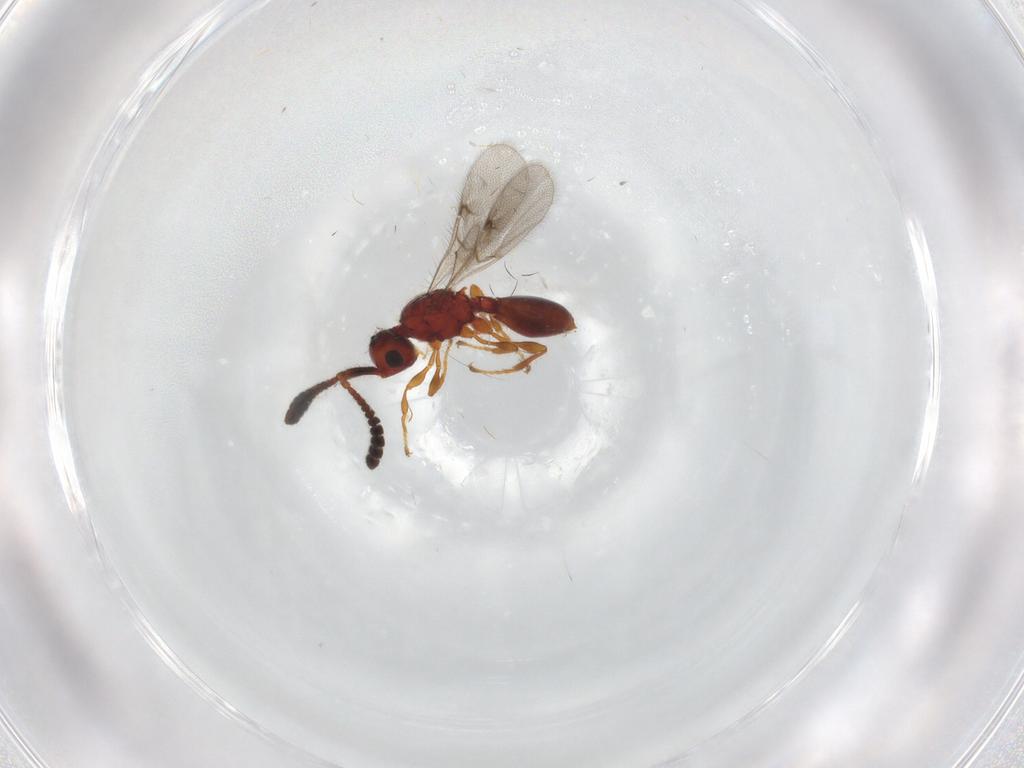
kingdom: Animalia
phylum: Arthropoda
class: Insecta
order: Hymenoptera
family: Diapriidae
